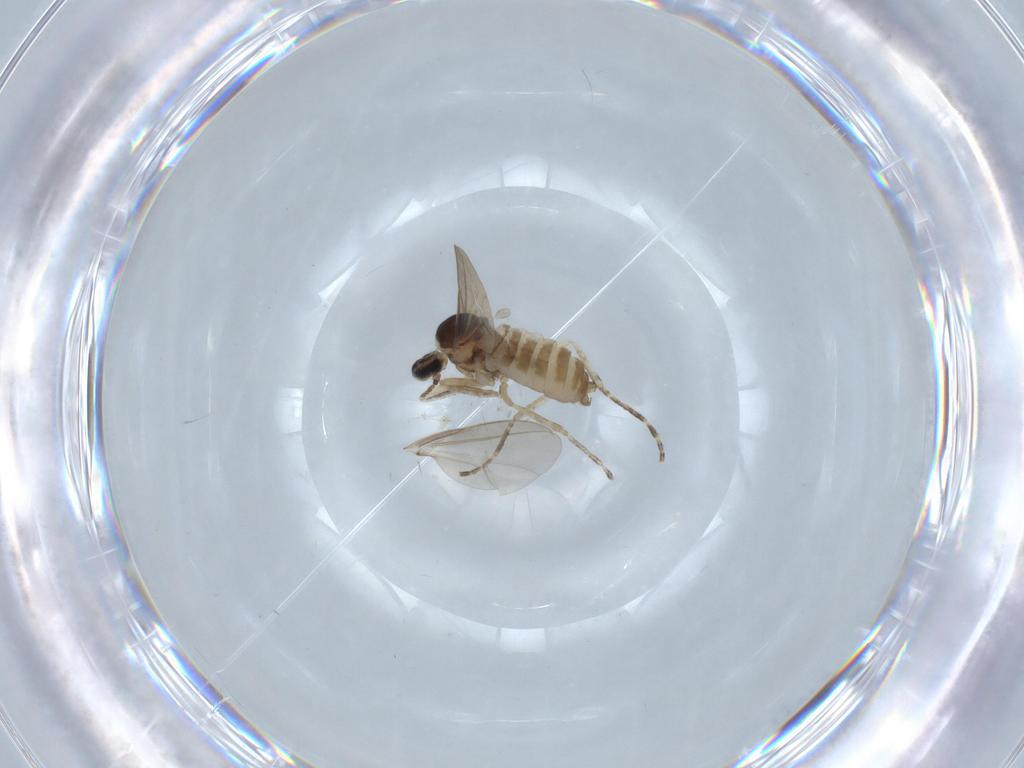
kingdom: Animalia
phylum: Arthropoda
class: Insecta
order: Diptera
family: Cecidomyiidae
